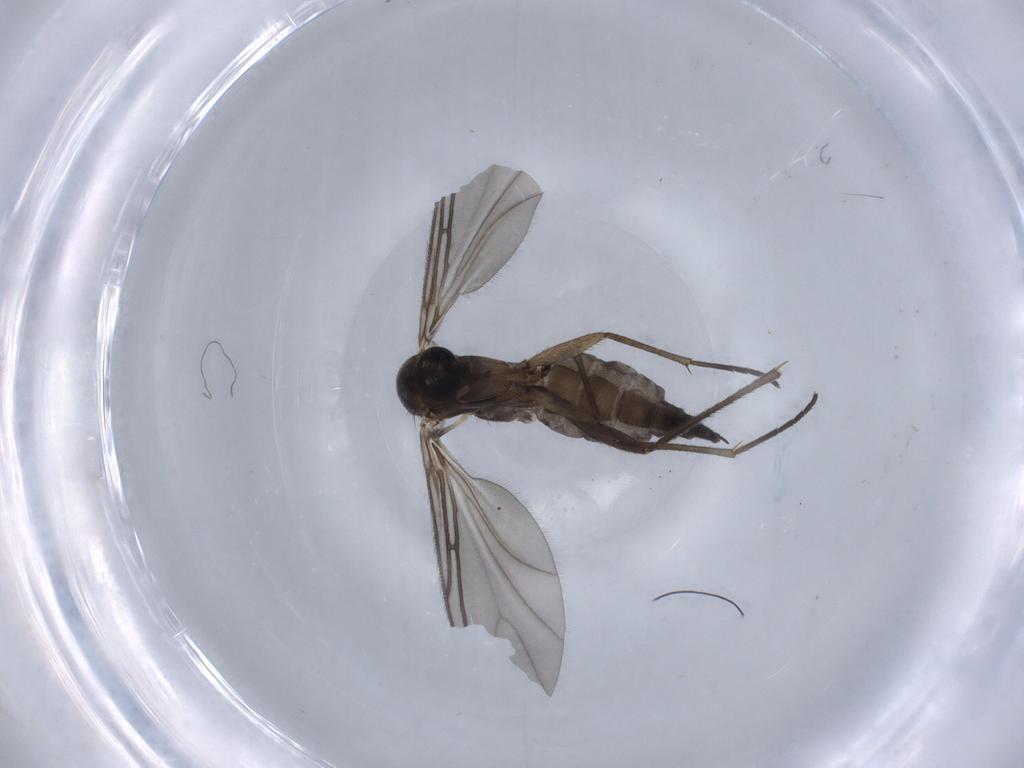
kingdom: Animalia
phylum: Arthropoda
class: Insecta
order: Diptera
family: Sciaridae
